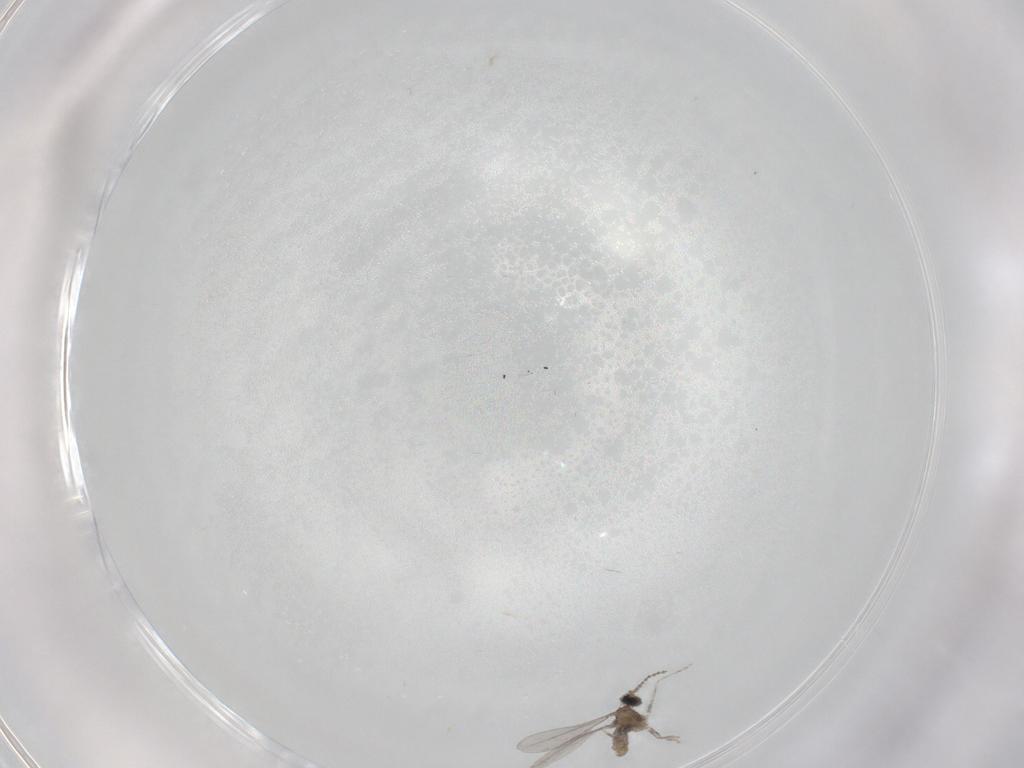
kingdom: Animalia
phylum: Arthropoda
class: Insecta
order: Diptera
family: Cecidomyiidae
